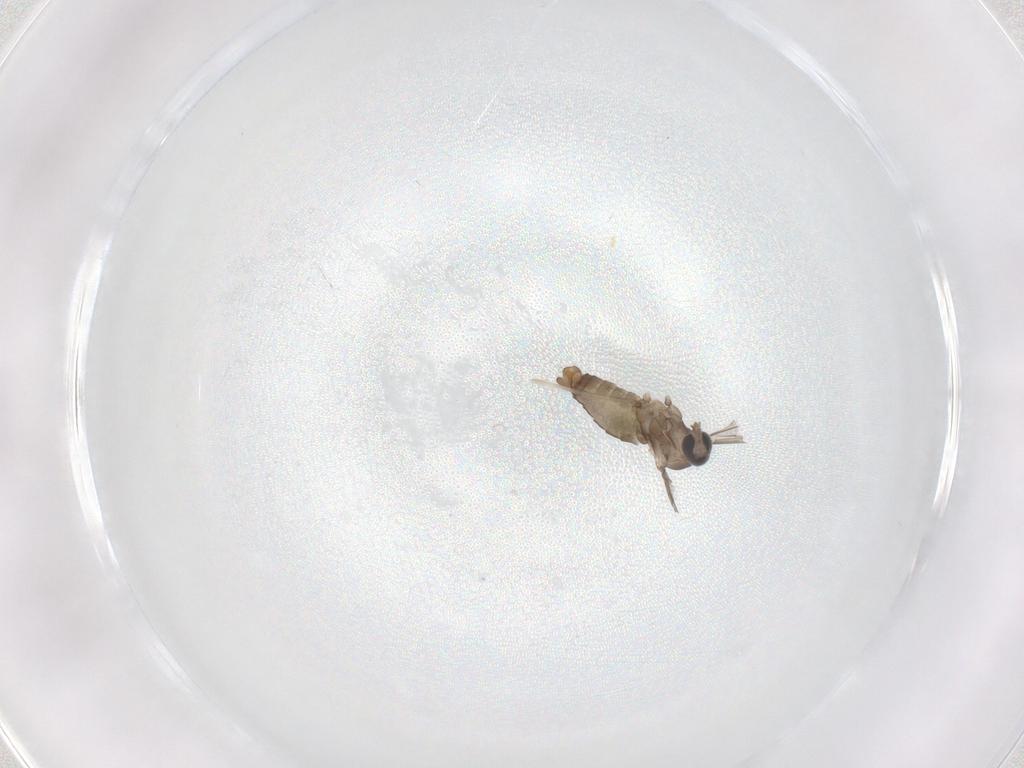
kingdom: Animalia
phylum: Arthropoda
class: Insecta
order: Diptera
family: Cecidomyiidae
